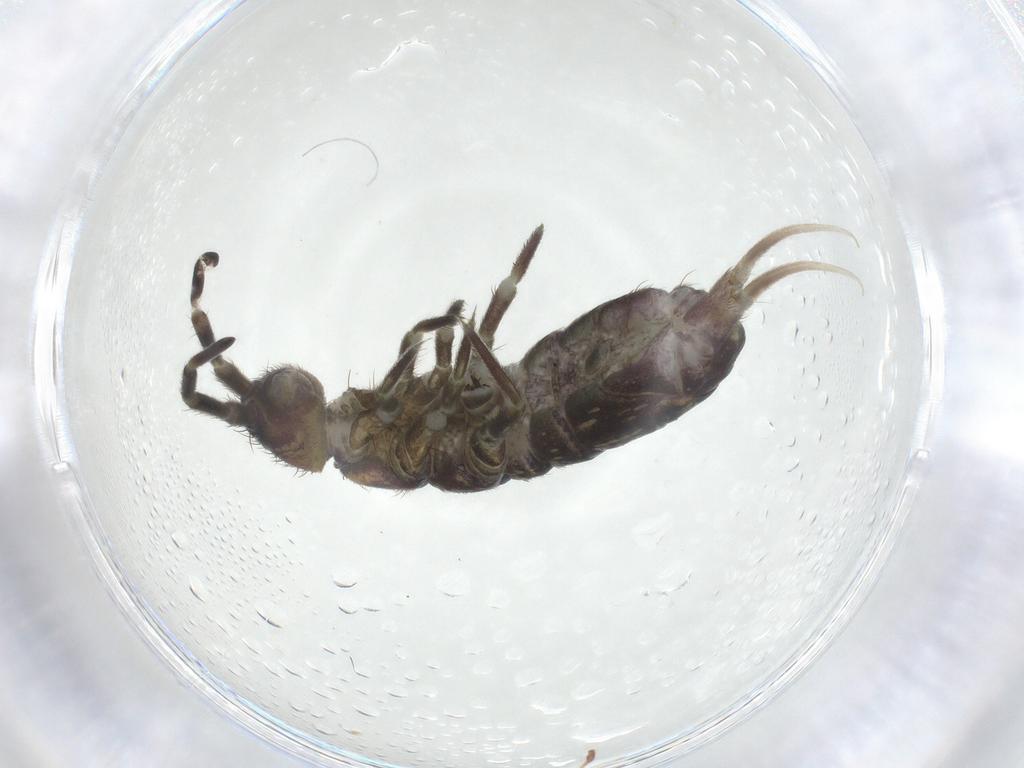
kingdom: Animalia
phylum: Arthropoda
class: Collembola
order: Entomobryomorpha
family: Isotomidae
